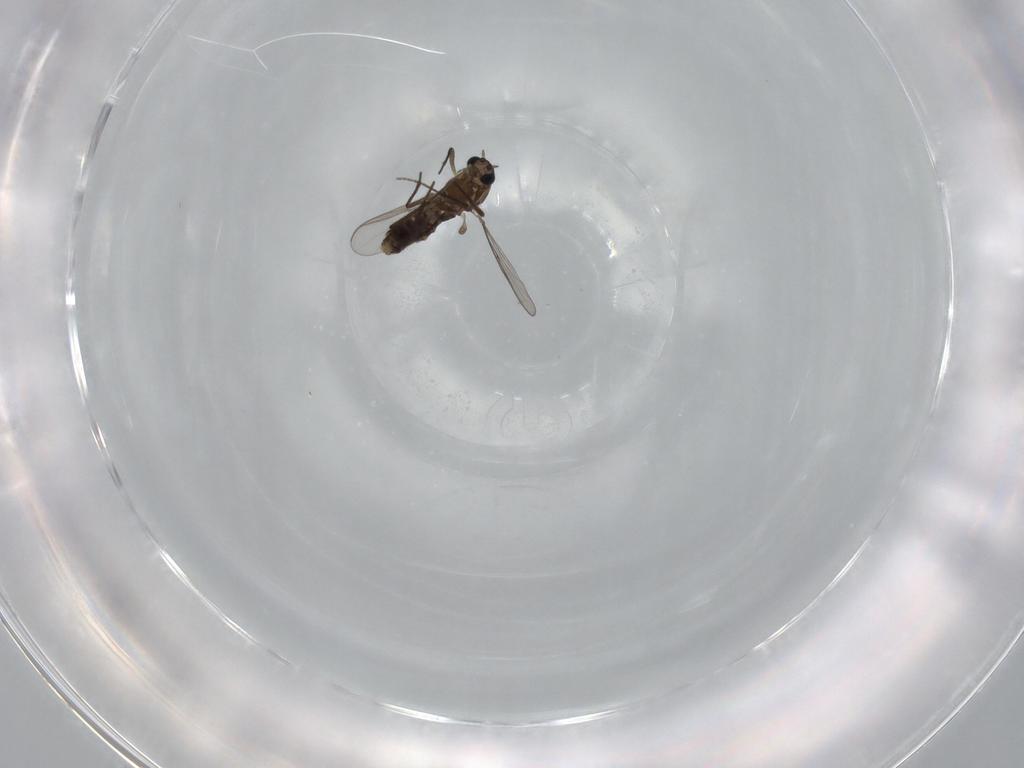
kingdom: Animalia
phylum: Arthropoda
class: Insecta
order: Diptera
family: Chironomidae
